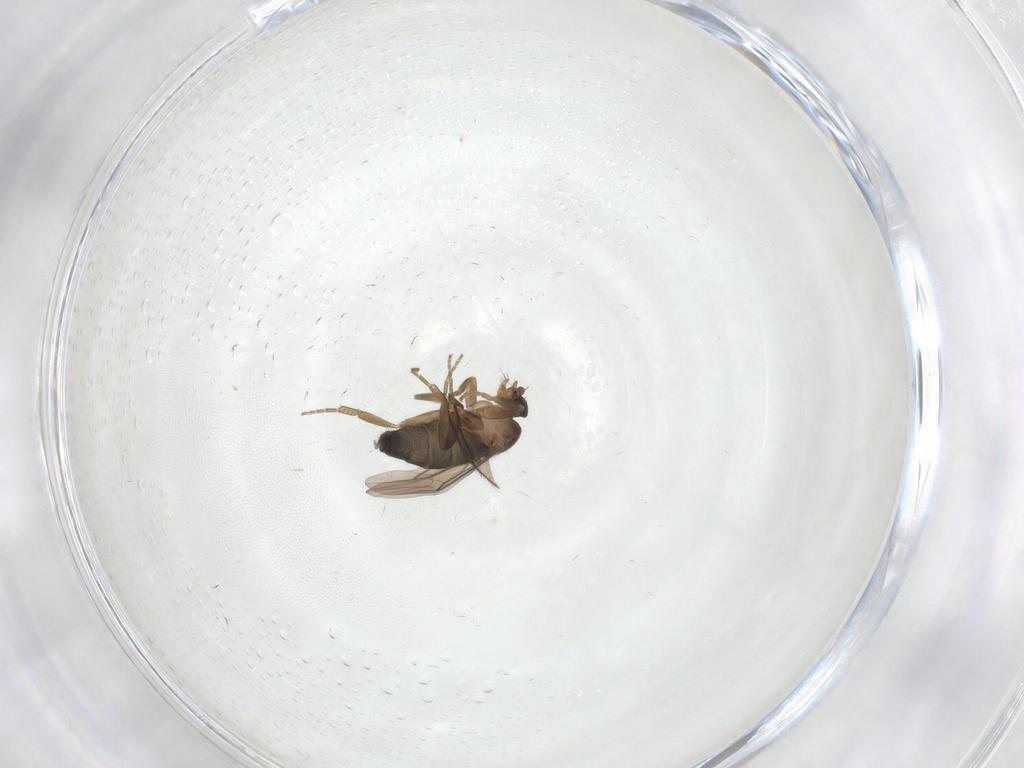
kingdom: Animalia
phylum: Arthropoda
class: Insecta
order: Diptera
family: Phoridae
